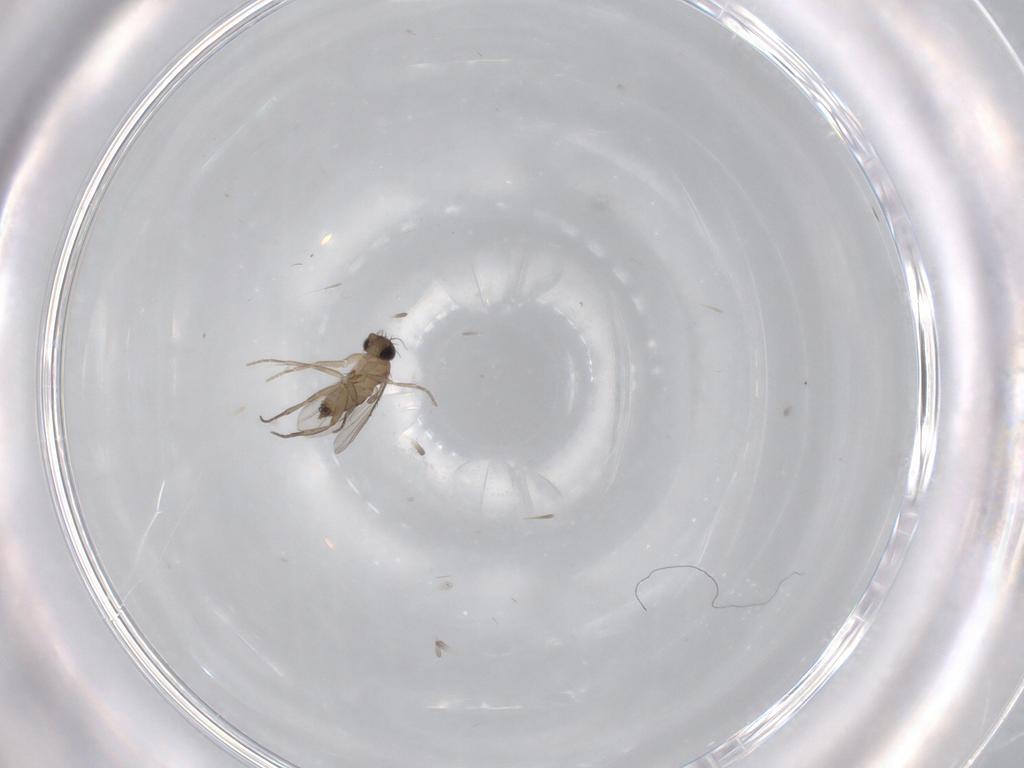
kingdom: Animalia
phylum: Arthropoda
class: Insecta
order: Diptera
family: Phoridae
